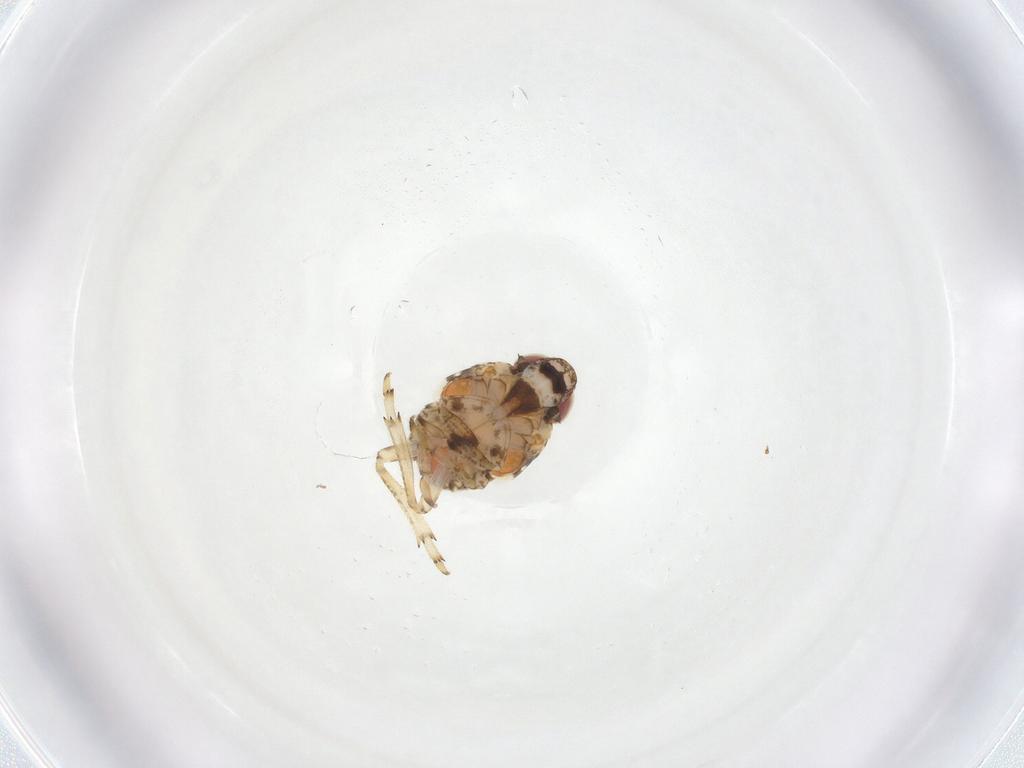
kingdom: Animalia
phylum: Arthropoda
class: Insecta
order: Hemiptera
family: Issidae
